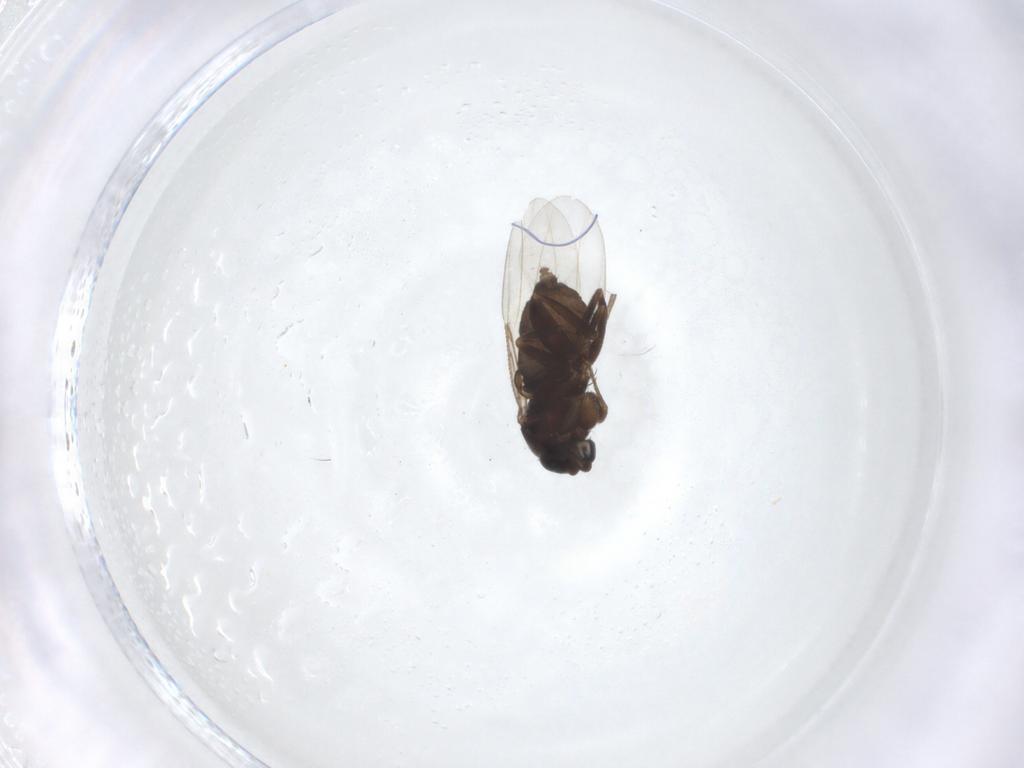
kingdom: Animalia
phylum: Arthropoda
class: Insecta
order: Diptera
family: Phoridae
